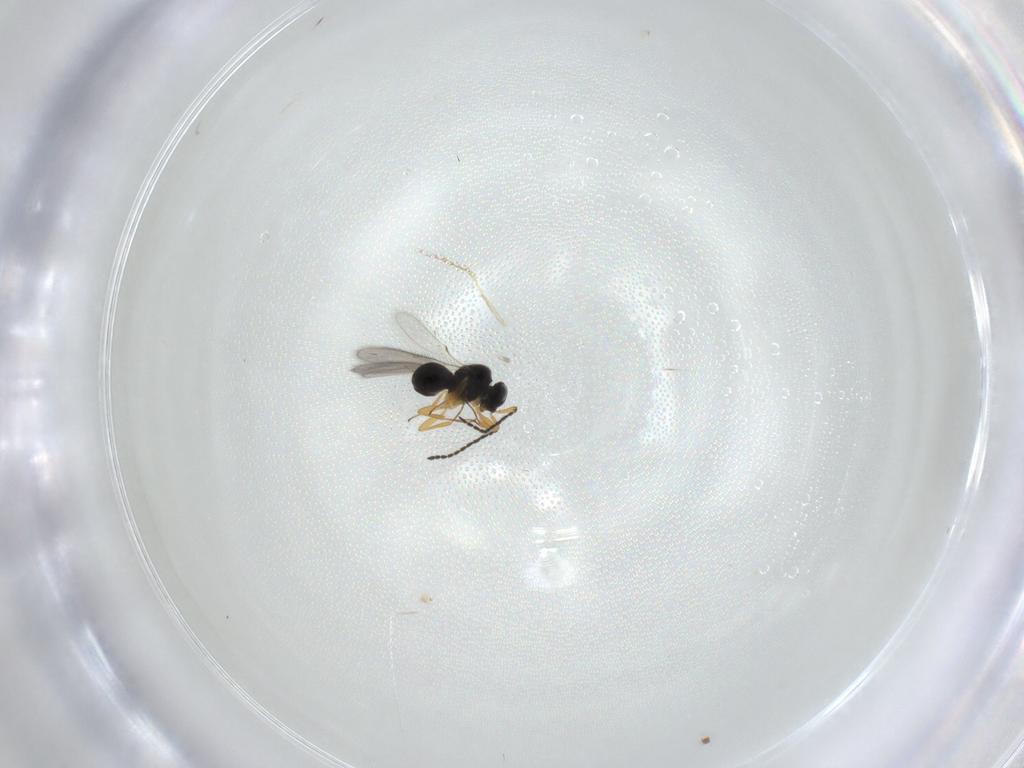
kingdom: Animalia
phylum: Arthropoda
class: Insecta
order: Hymenoptera
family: Scelionidae
